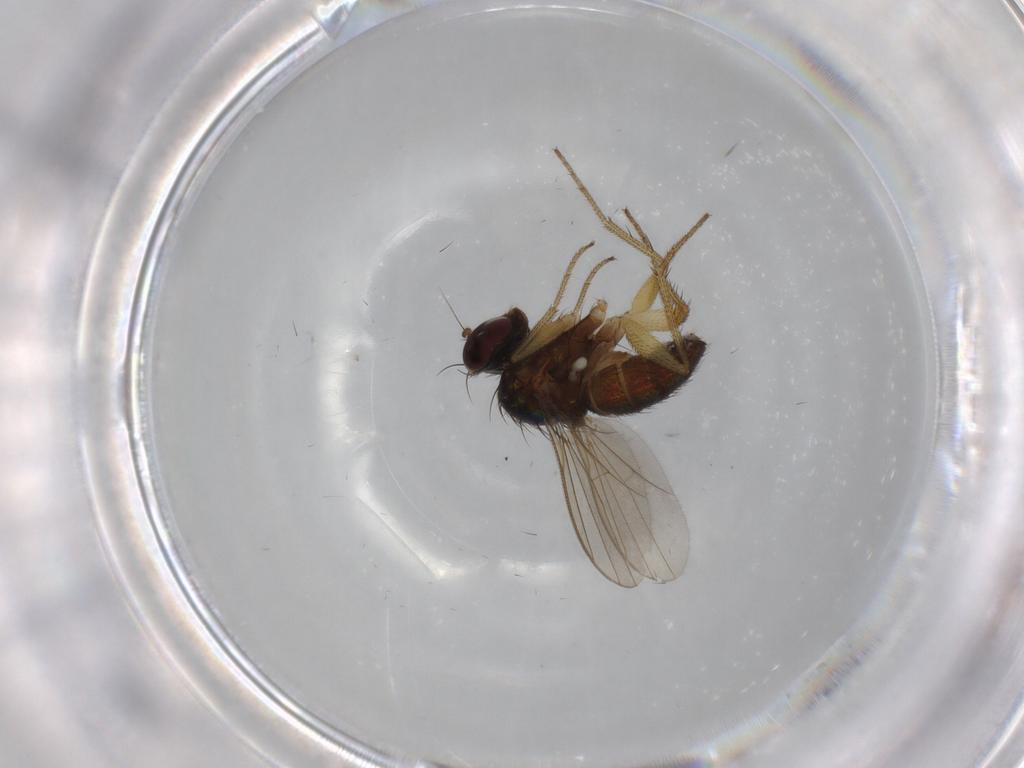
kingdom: Animalia
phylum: Arthropoda
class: Insecta
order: Diptera
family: Dolichopodidae
